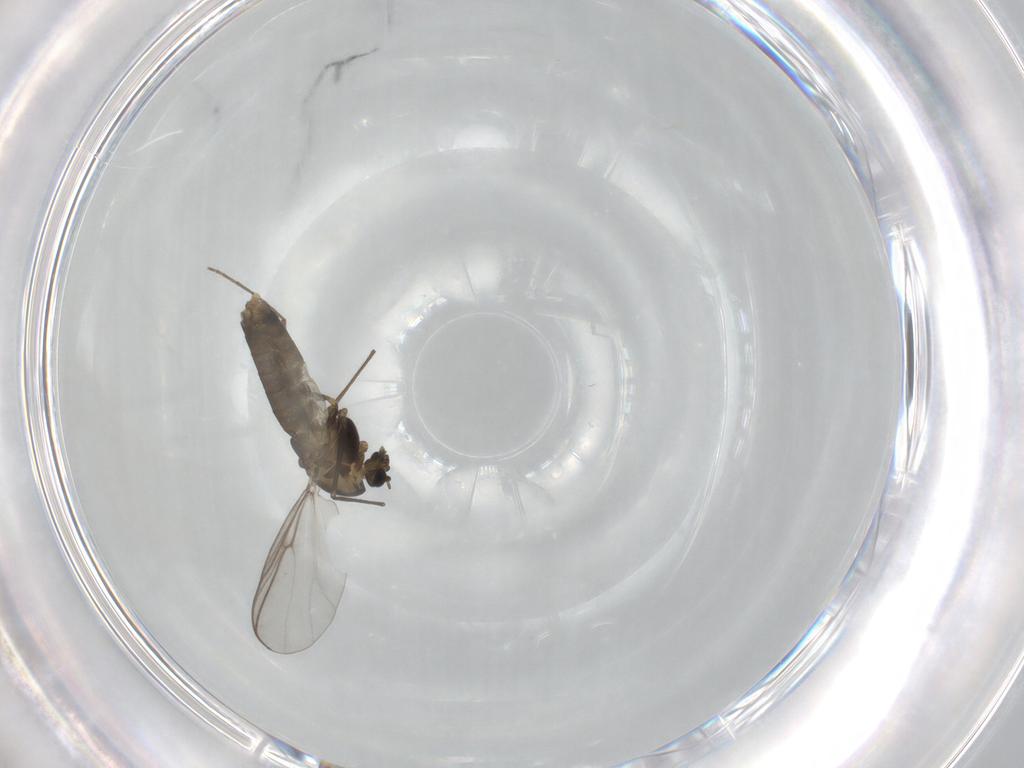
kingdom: Animalia
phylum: Arthropoda
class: Insecta
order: Diptera
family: Chironomidae
